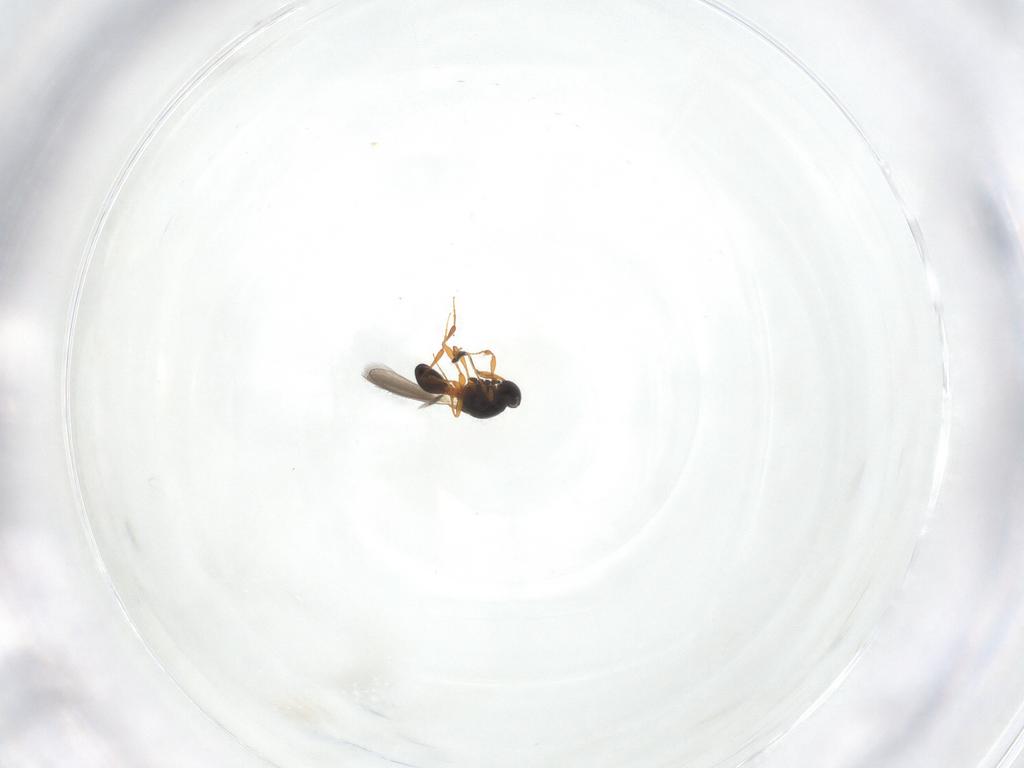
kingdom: Animalia
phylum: Arthropoda
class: Insecta
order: Hymenoptera
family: Platygastridae
